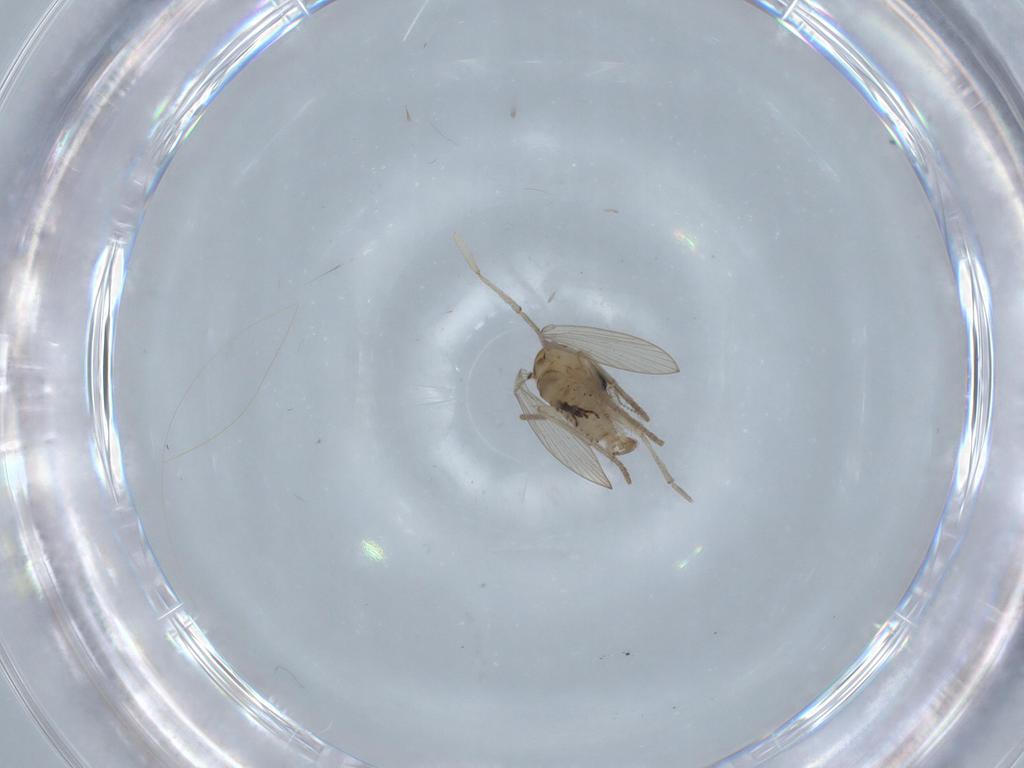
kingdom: Animalia
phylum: Arthropoda
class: Insecta
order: Diptera
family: Psychodidae
